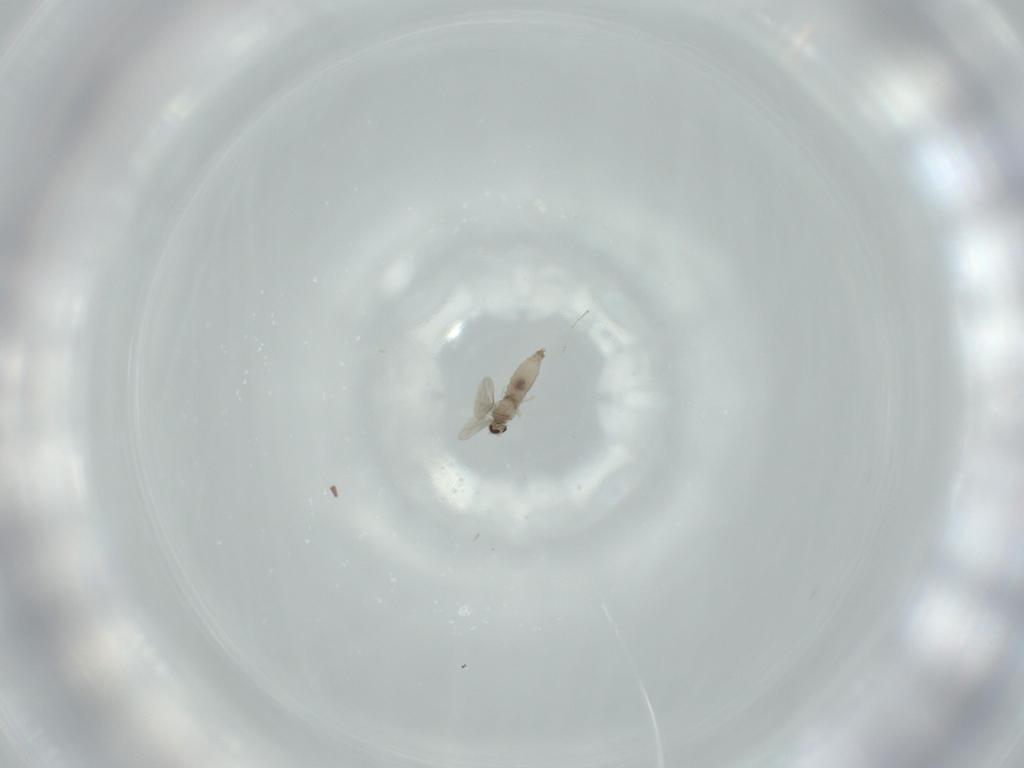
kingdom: Animalia
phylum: Arthropoda
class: Insecta
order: Diptera
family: Cecidomyiidae
